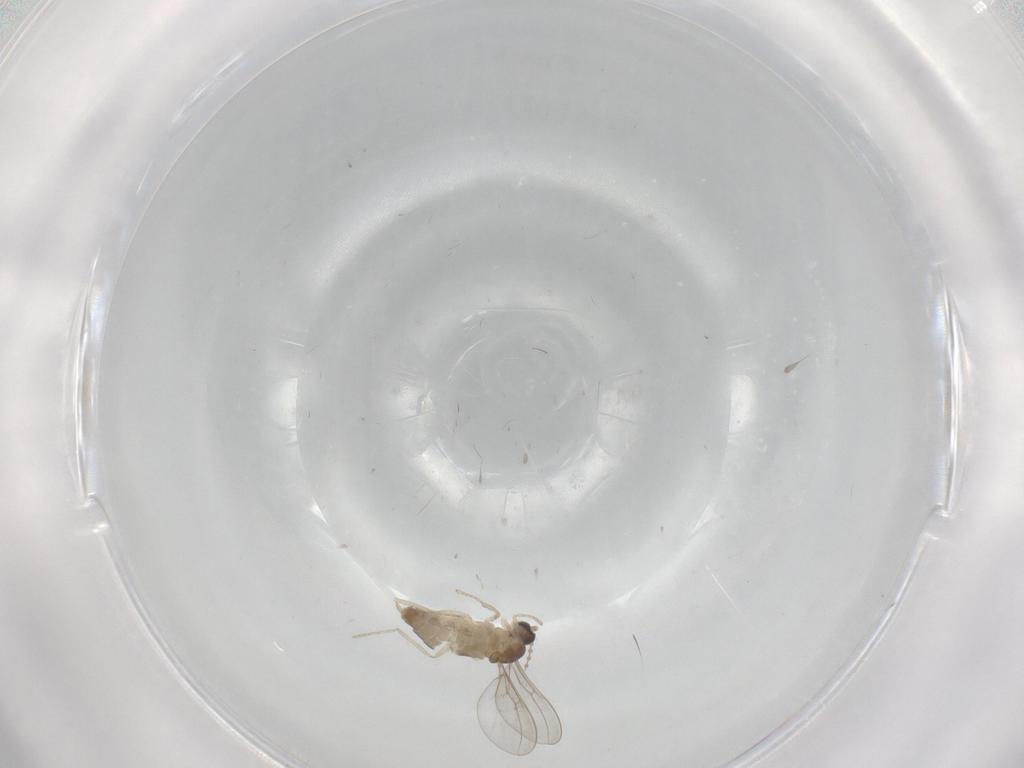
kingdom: Animalia
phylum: Arthropoda
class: Insecta
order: Diptera
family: Cecidomyiidae
